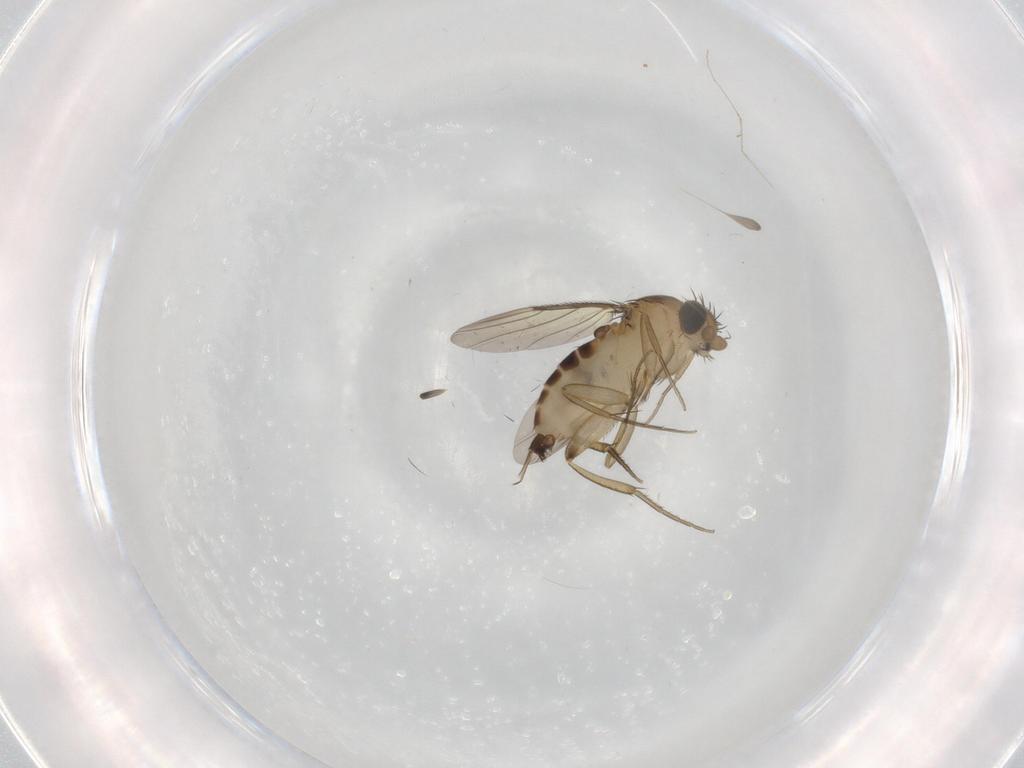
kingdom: Animalia
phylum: Arthropoda
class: Insecta
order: Diptera
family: Phoridae
